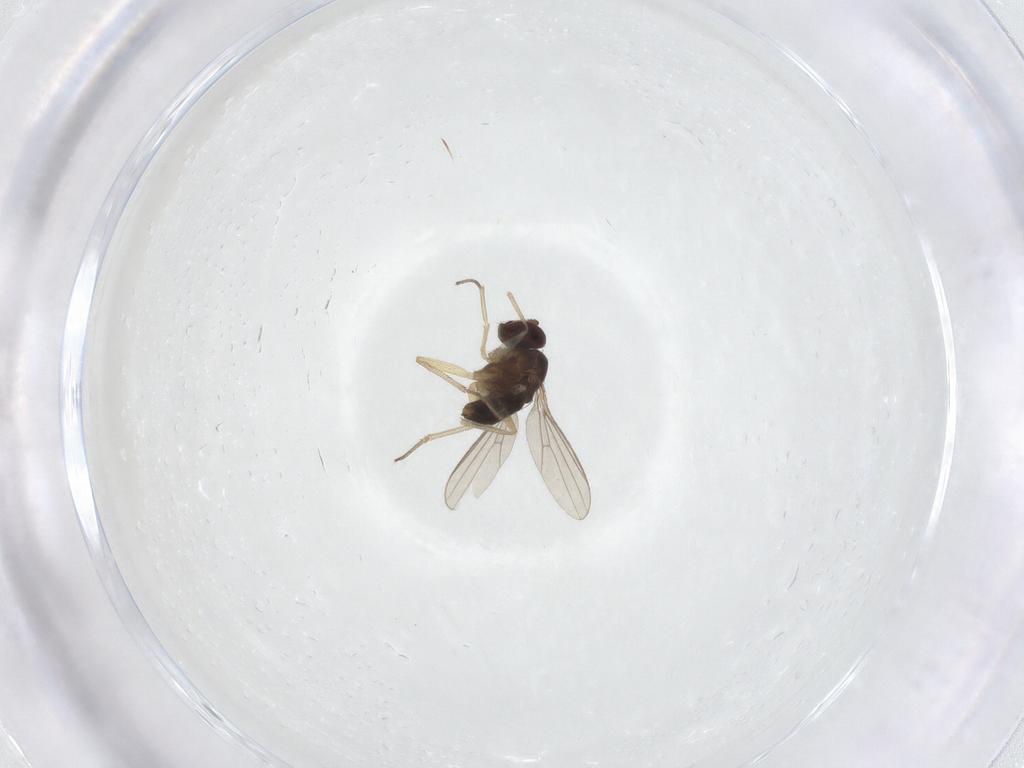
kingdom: Animalia
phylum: Arthropoda
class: Insecta
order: Diptera
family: Dolichopodidae
